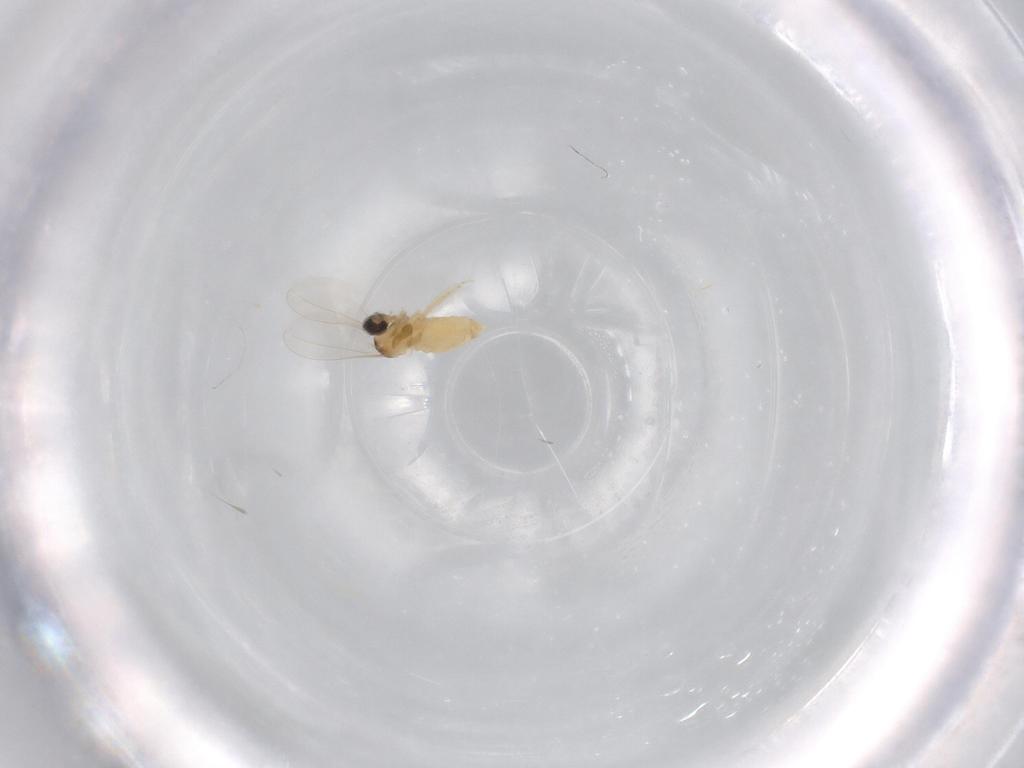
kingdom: Animalia
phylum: Arthropoda
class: Insecta
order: Diptera
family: Cecidomyiidae
